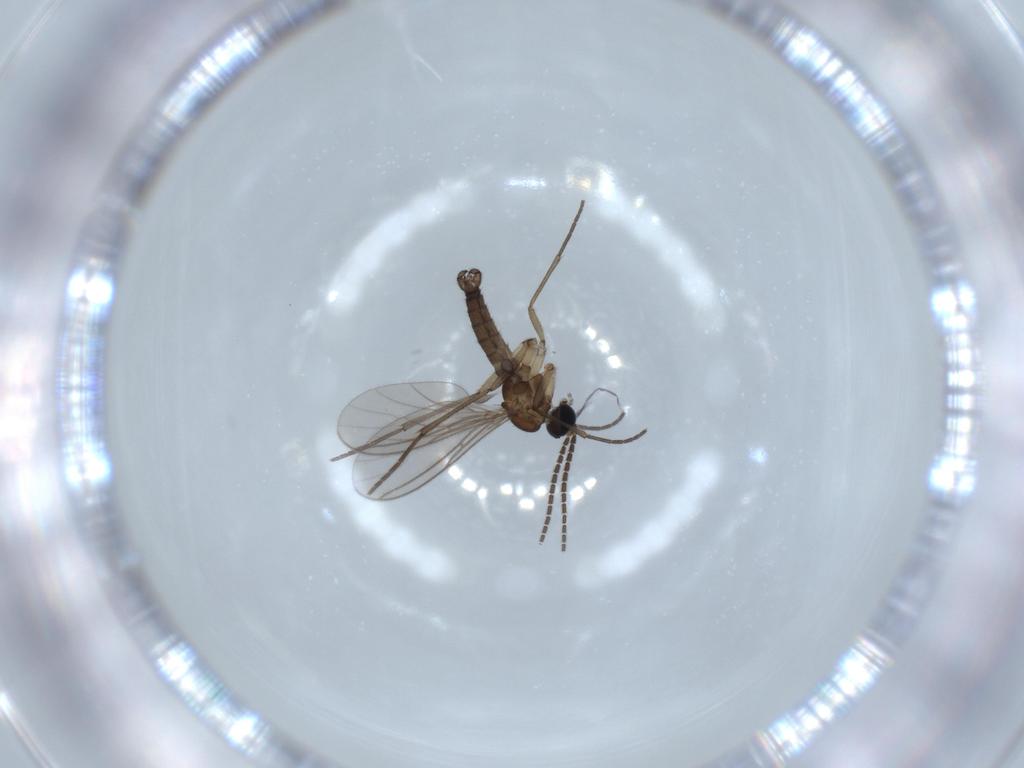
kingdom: Animalia
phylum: Arthropoda
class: Insecta
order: Diptera
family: Sciaridae
